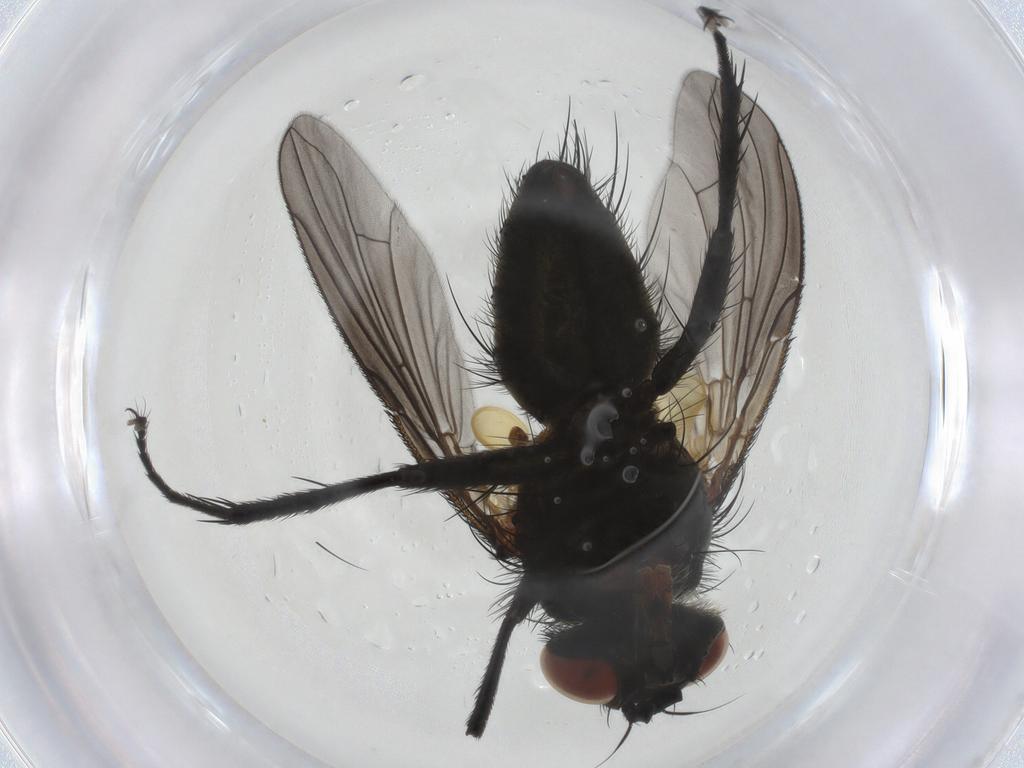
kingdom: Animalia
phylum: Arthropoda
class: Insecta
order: Diptera
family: Tachinidae
